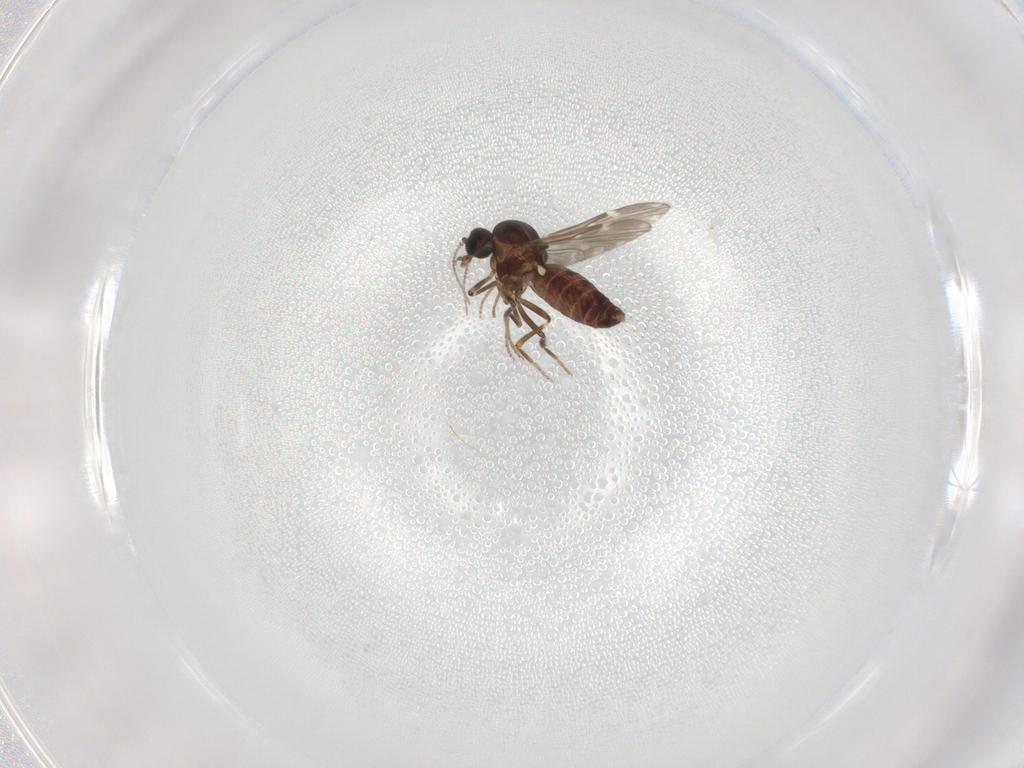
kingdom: Animalia
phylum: Arthropoda
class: Insecta
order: Diptera
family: Ceratopogonidae
